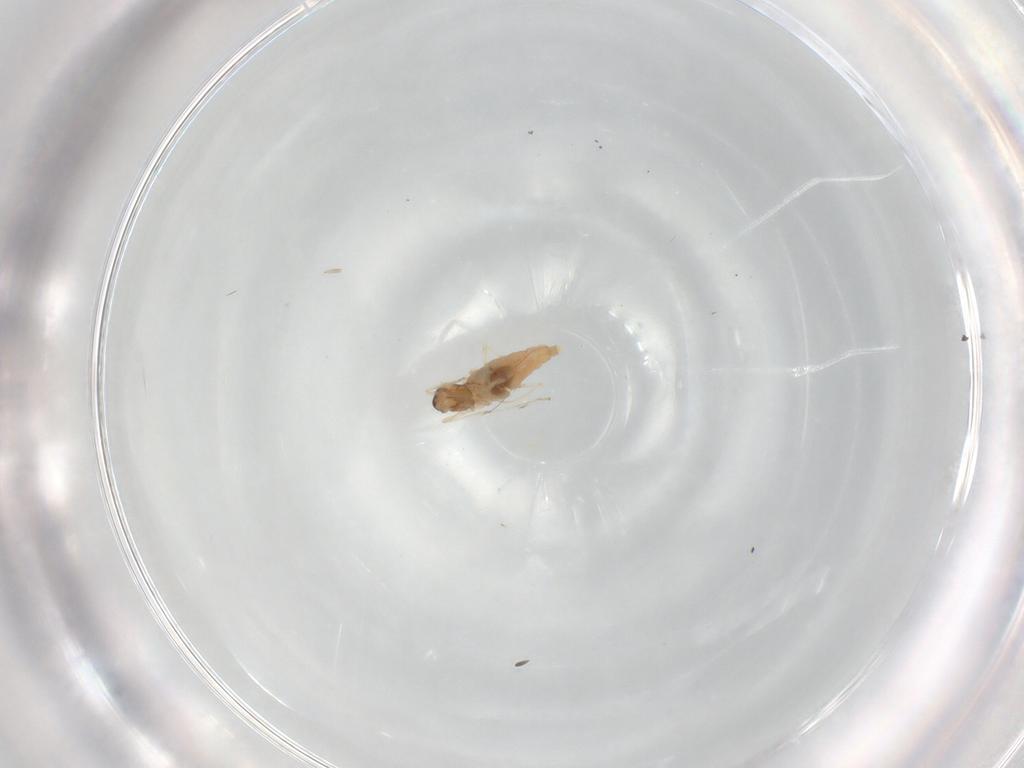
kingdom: Animalia
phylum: Arthropoda
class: Insecta
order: Diptera
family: Cecidomyiidae
